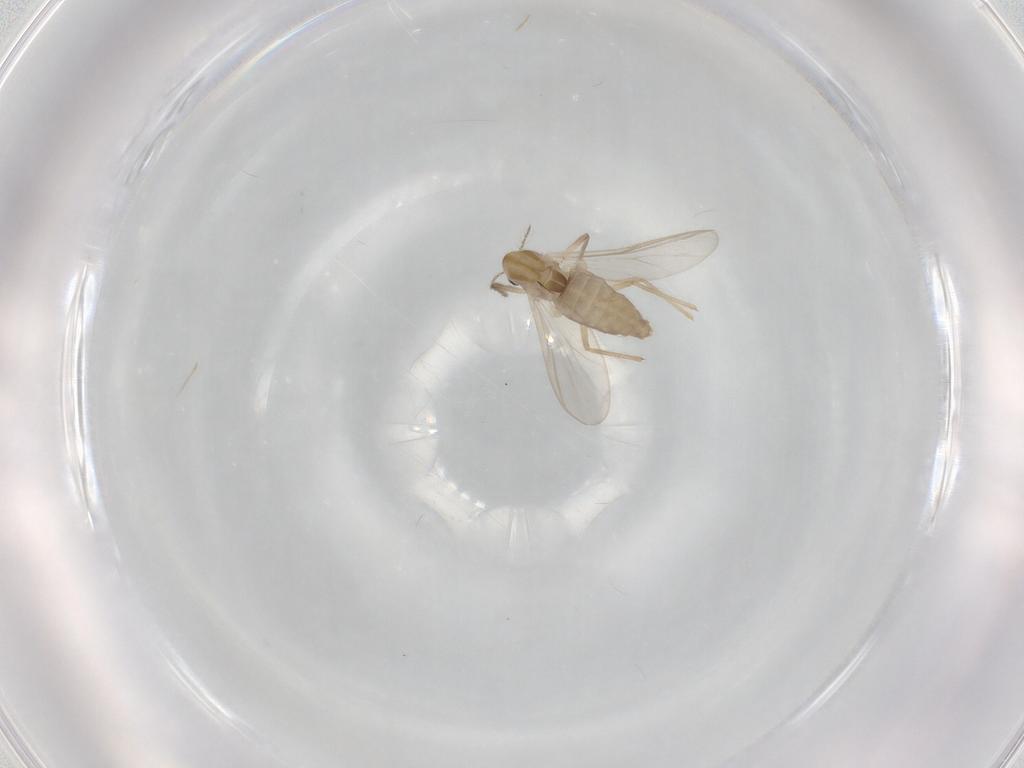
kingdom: Animalia
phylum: Arthropoda
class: Insecta
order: Diptera
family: Chironomidae
